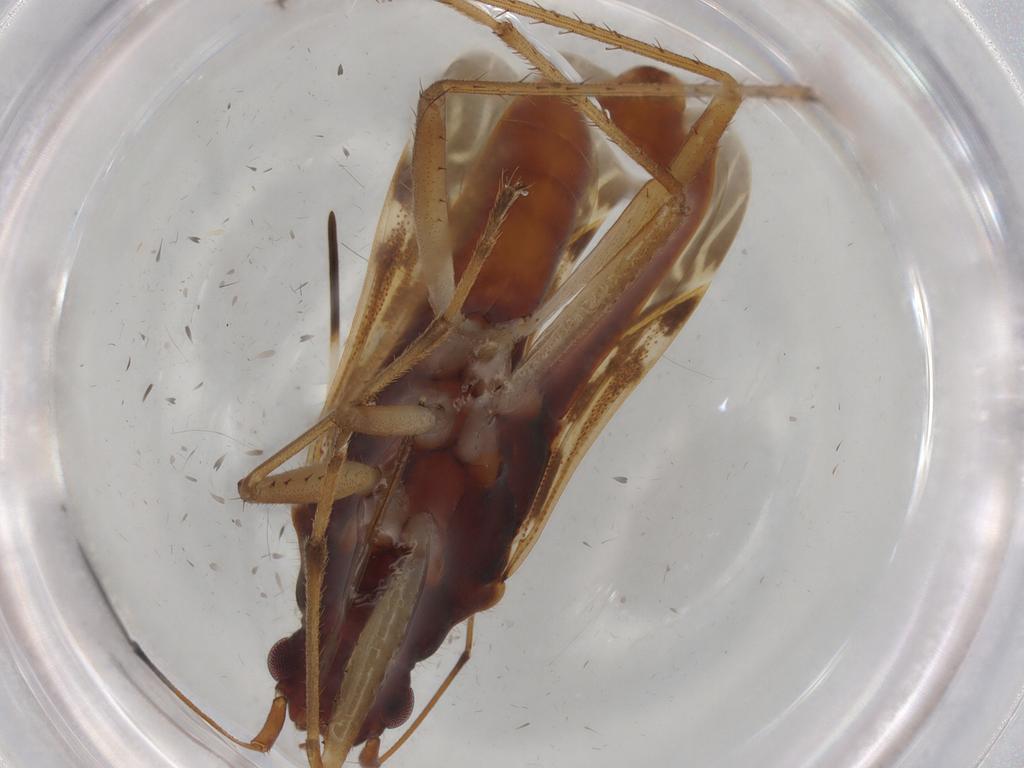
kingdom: Animalia
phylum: Arthropoda
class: Insecta
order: Hemiptera
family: Rhyparochromidae
